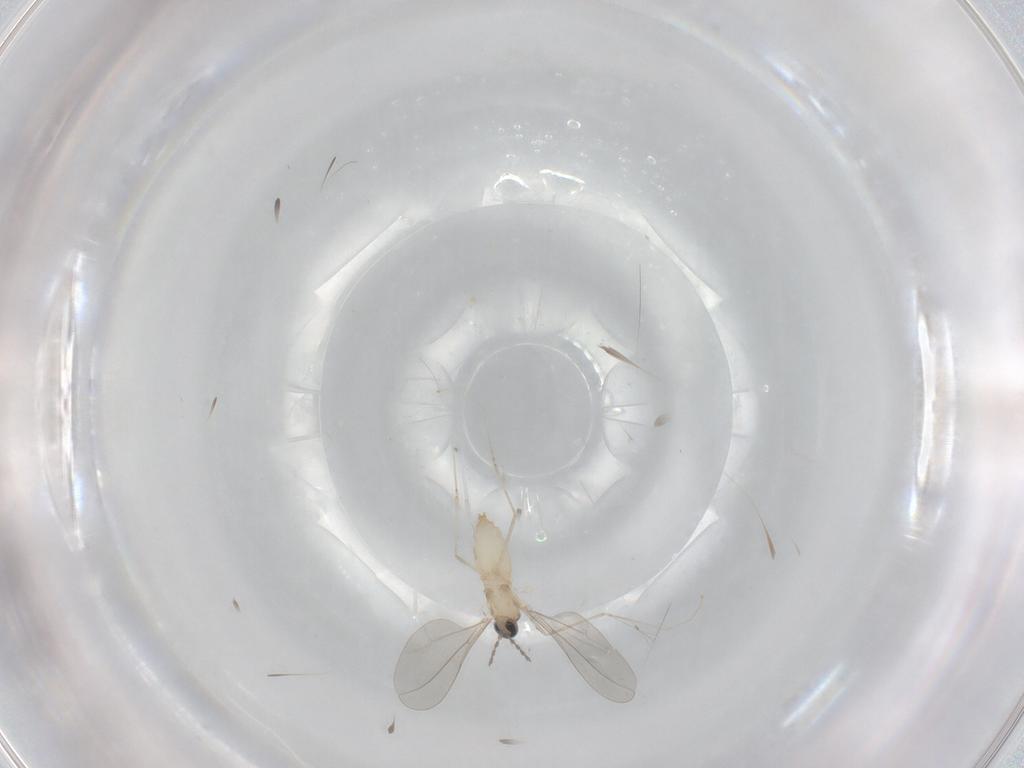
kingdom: Animalia
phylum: Arthropoda
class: Insecta
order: Diptera
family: Cecidomyiidae
